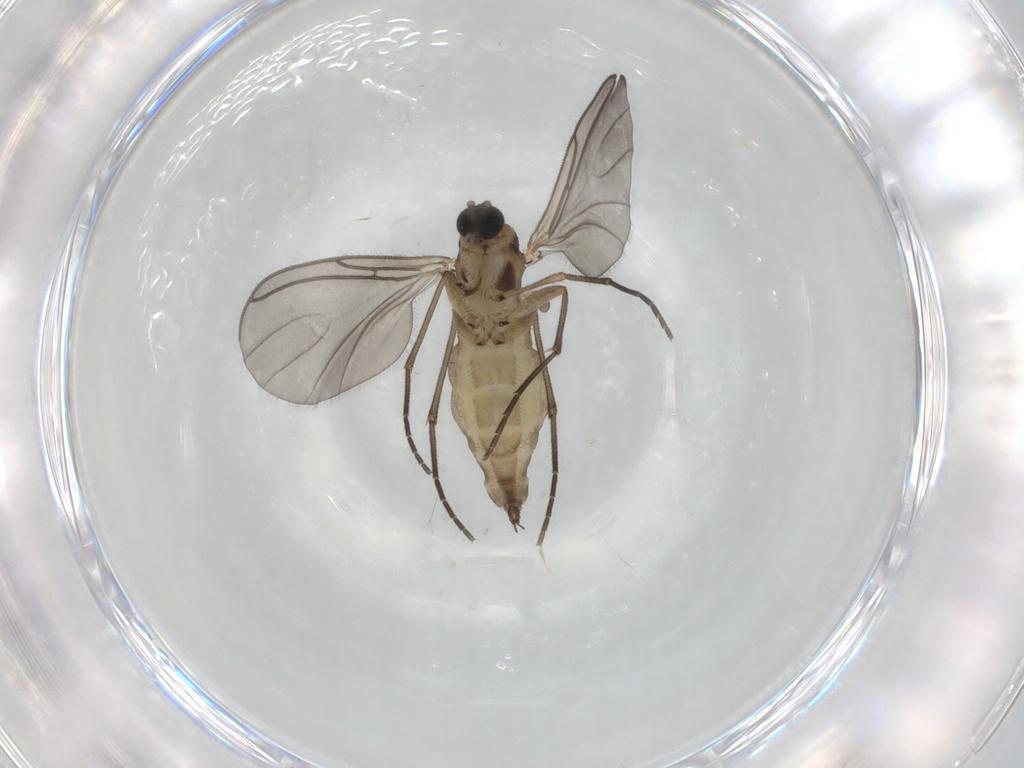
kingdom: Animalia
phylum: Arthropoda
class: Insecta
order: Diptera
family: Sciaridae
